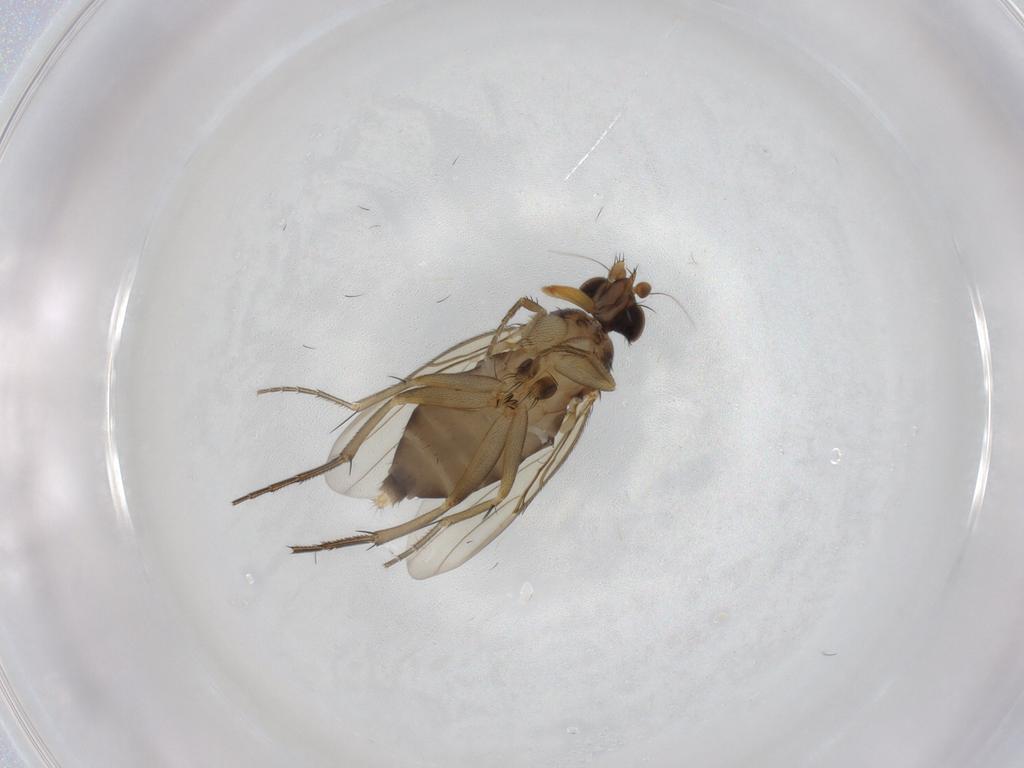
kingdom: Animalia
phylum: Arthropoda
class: Insecta
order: Diptera
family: Phoridae
